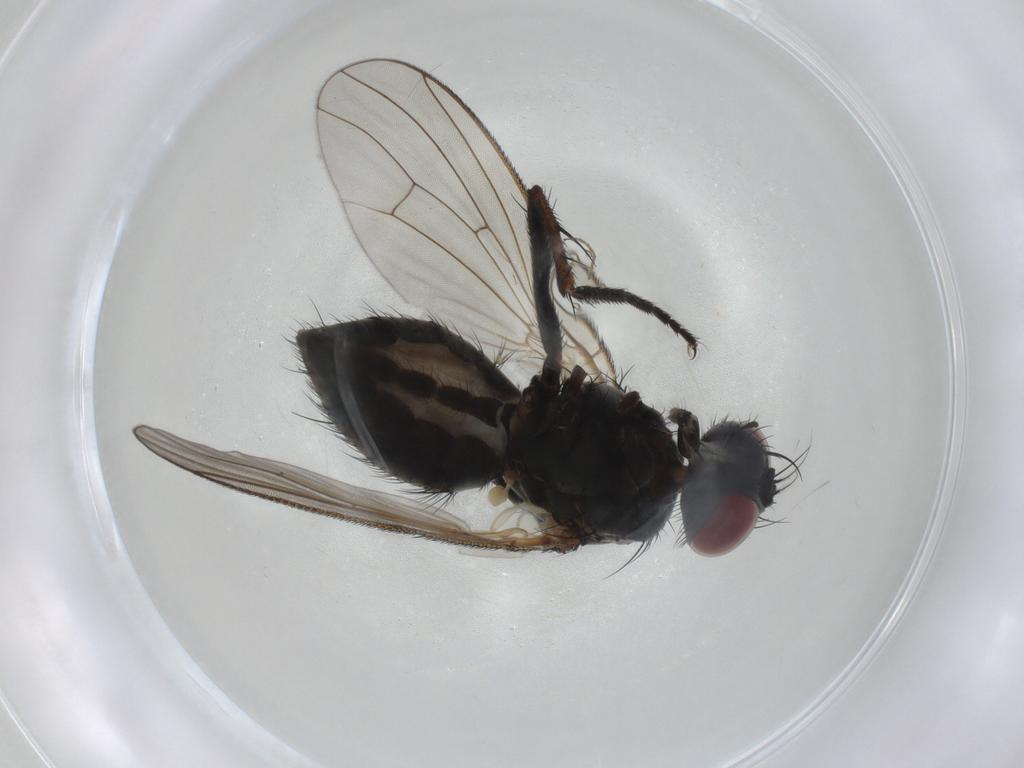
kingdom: Animalia
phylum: Arthropoda
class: Insecta
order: Diptera
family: Muscidae
